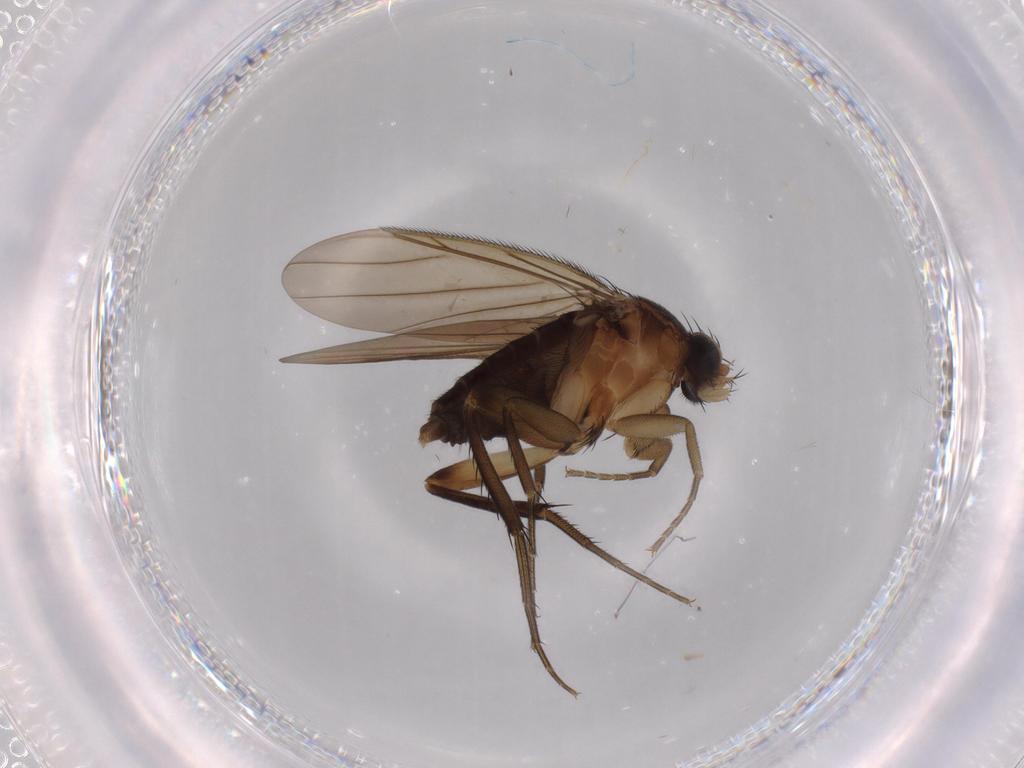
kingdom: Animalia
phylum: Arthropoda
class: Insecta
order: Diptera
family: Phoridae
